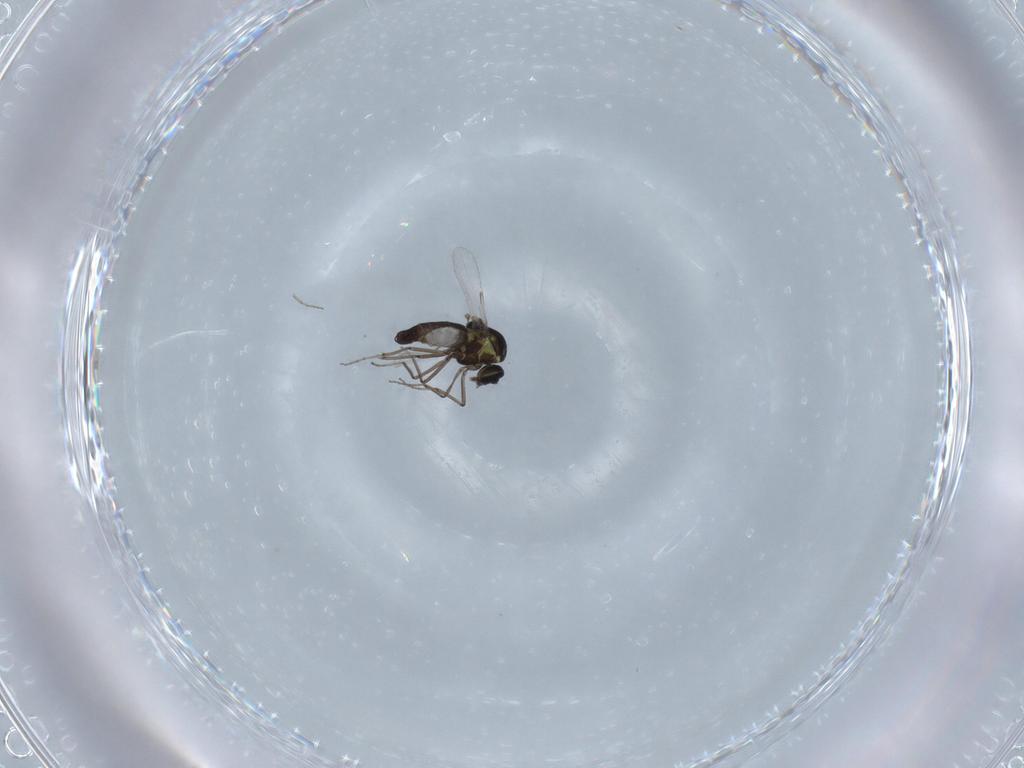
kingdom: Animalia
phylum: Arthropoda
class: Insecta
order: Diptera
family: Ceratopogonidae
